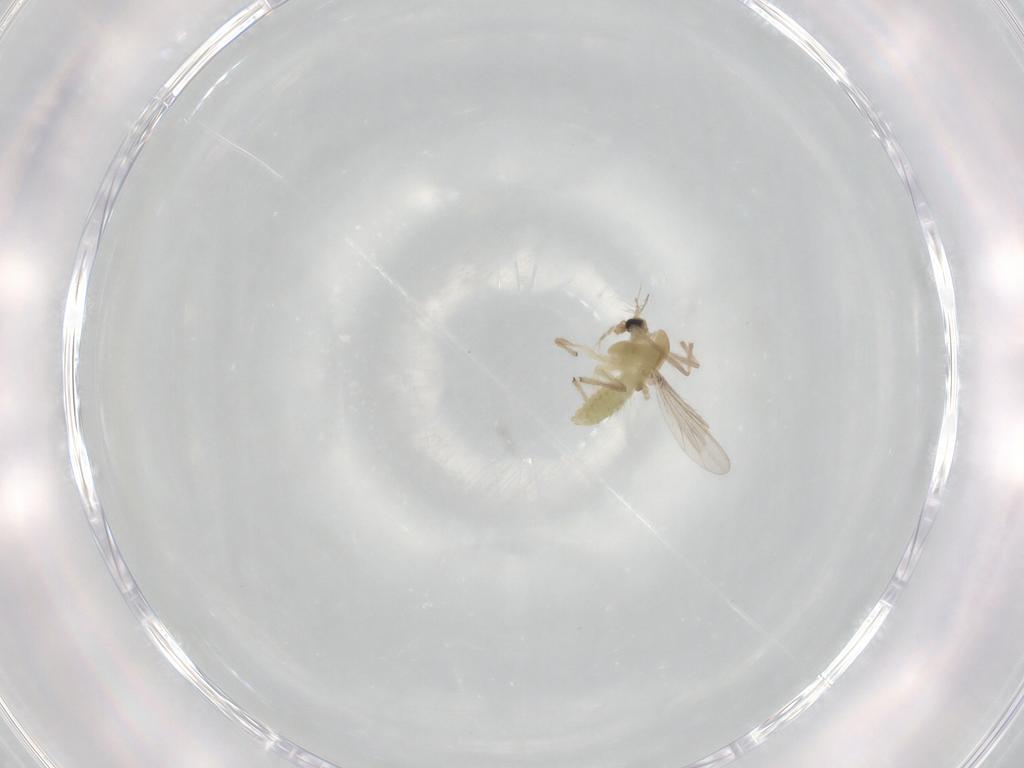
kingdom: Animalia
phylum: Arthropoda
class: Insecta
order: Diptera
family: Chironomidae
